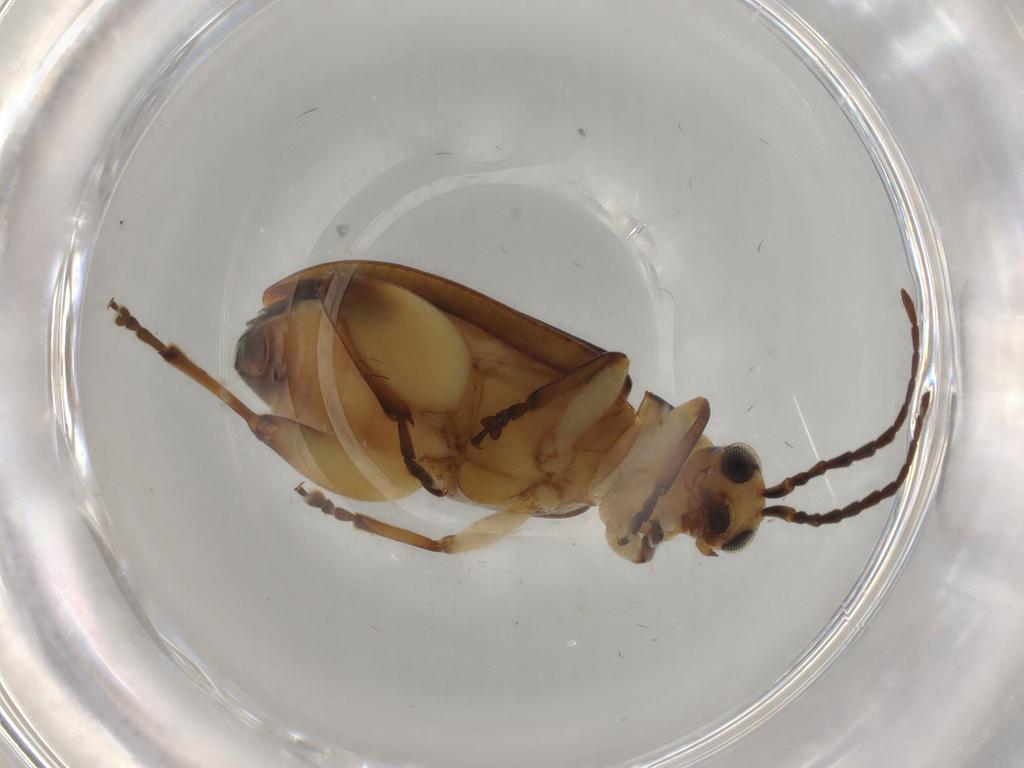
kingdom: Animalia
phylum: Arthropoda
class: Insecta
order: Coleoptera
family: Chrysomelidae
